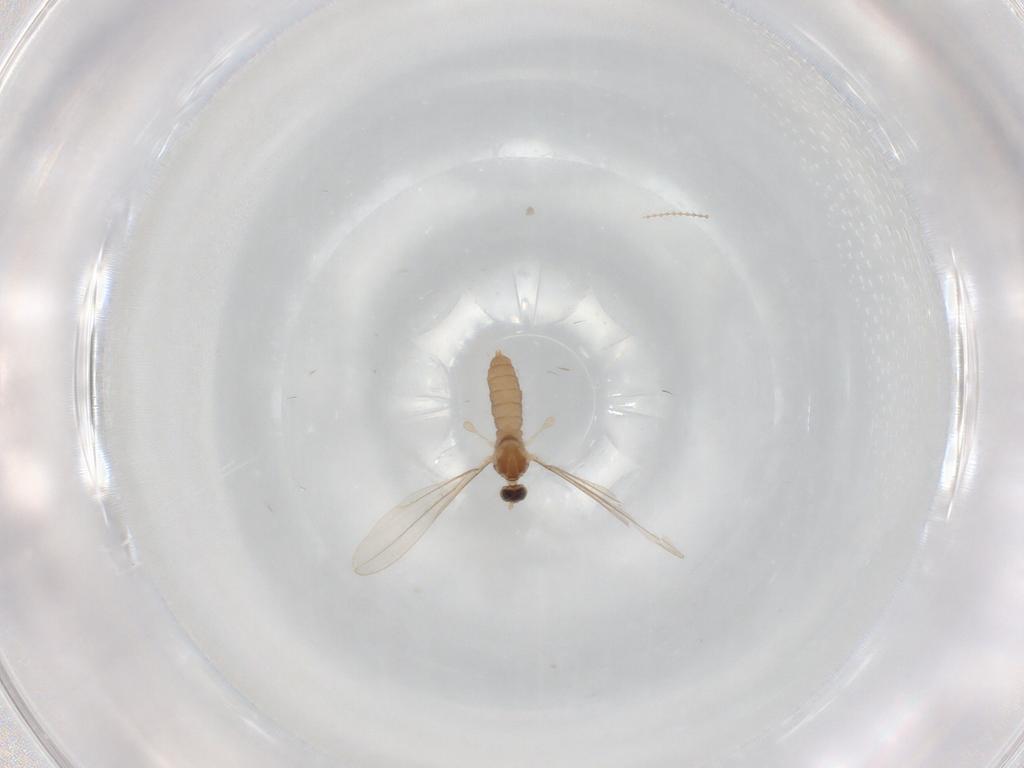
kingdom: Animalia
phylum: Arthropoda
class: Insecta
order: Diptera
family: Cecidomyiidae
